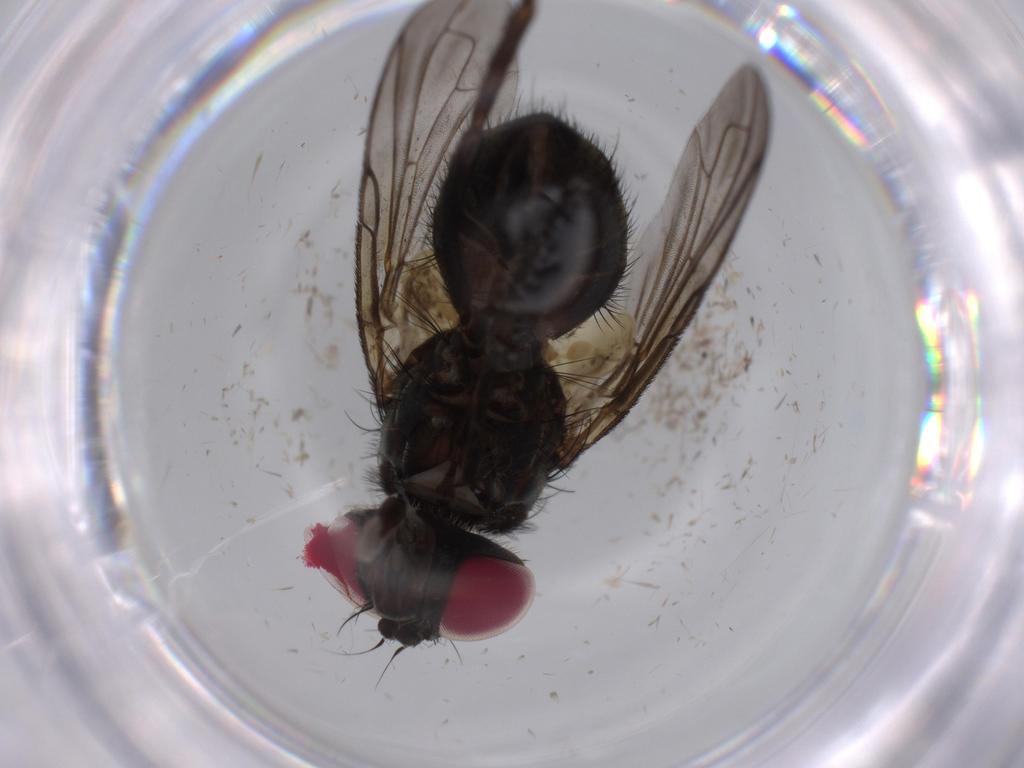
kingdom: Animalia
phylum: Arthropoda
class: Insecta
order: Diptera
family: Cecidomyiidae
